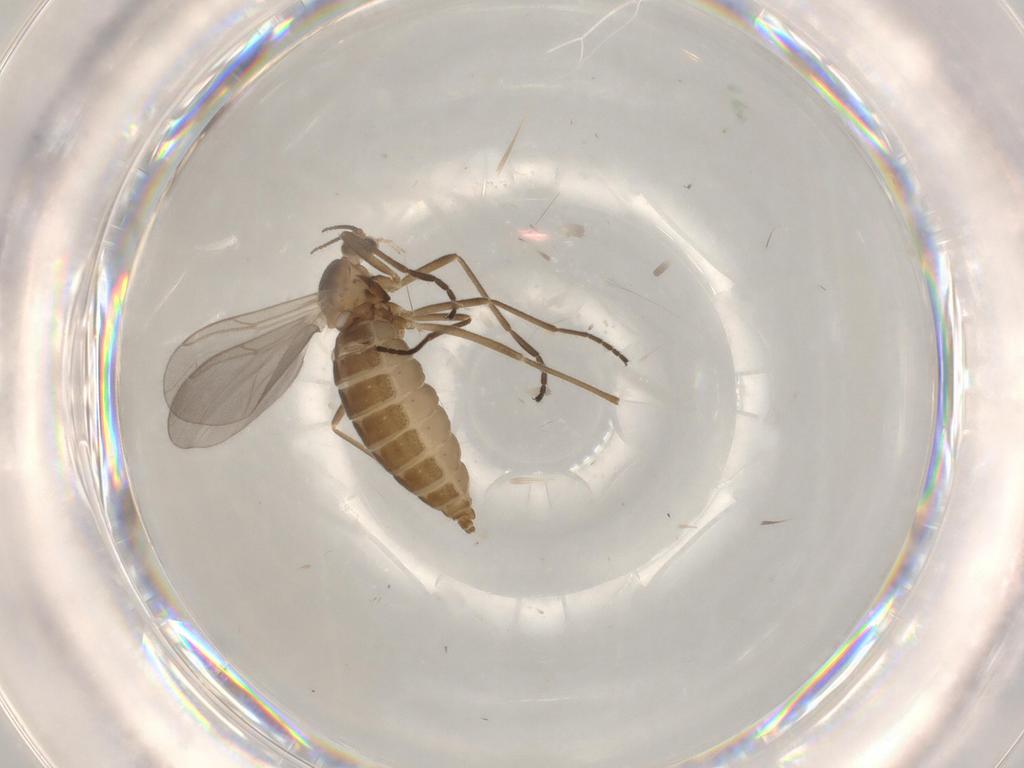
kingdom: Animalia
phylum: Arthropoda
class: Insecta
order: Diptera
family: Cecidomyiidae
